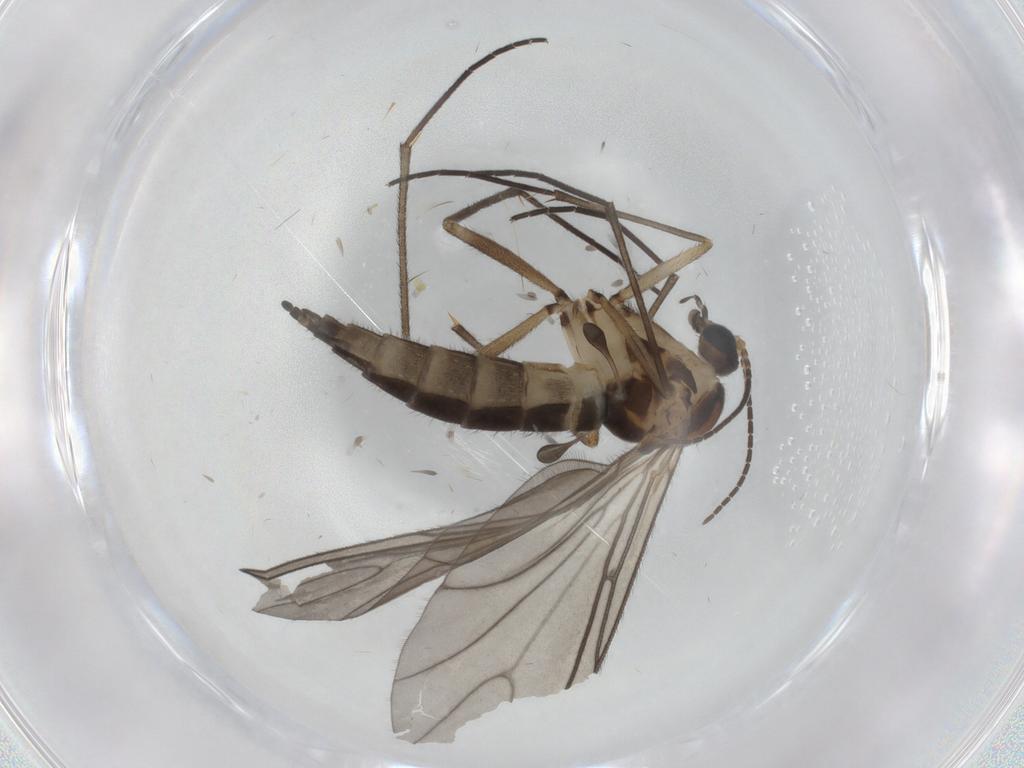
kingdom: Animalia
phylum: Arthropoda
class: Insecta
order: Diptera
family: Sciaridae
